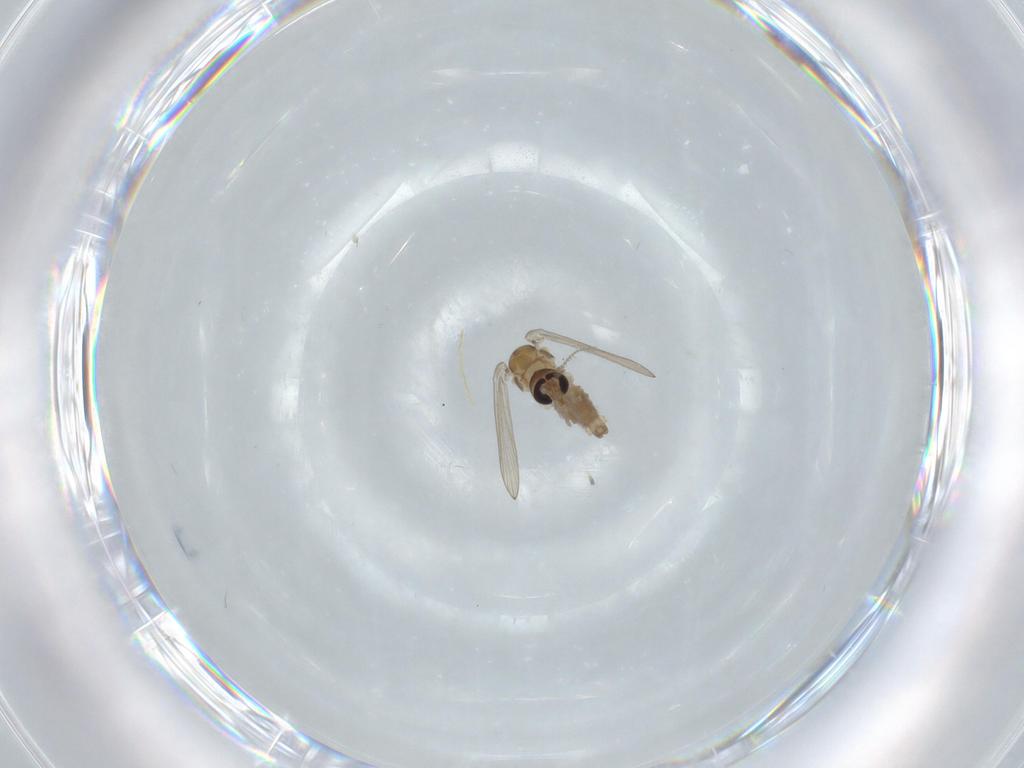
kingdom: Animalia
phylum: Arthropoda
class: Insecta
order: Diptera
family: Psychodidae
